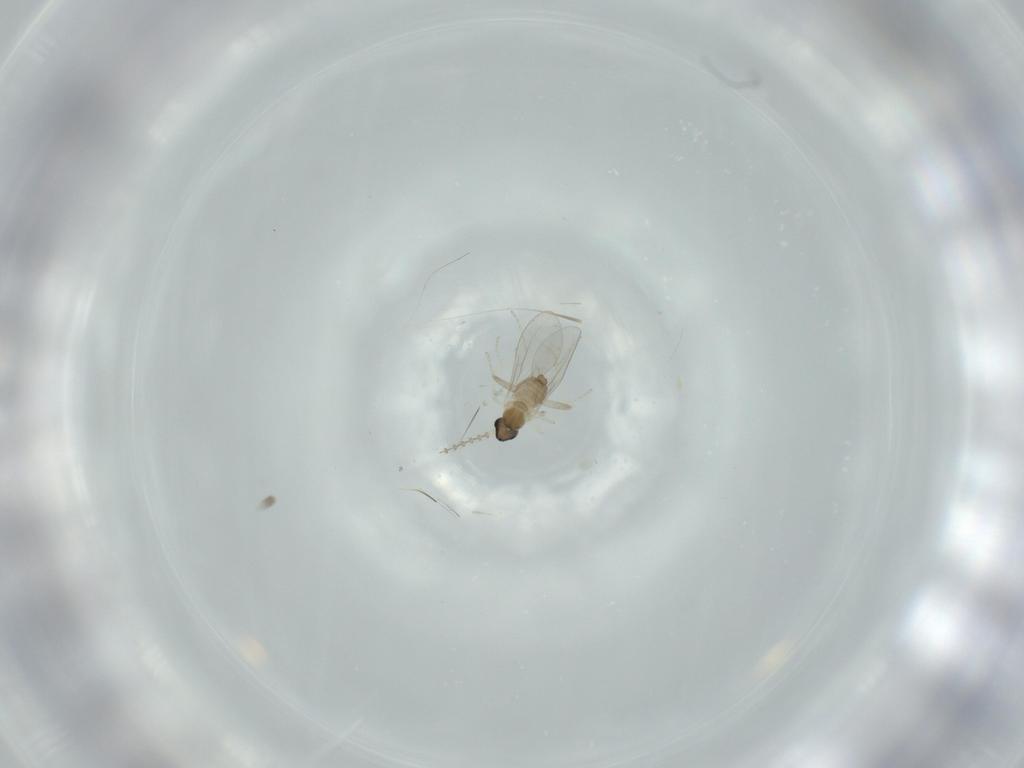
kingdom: Animalia
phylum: Arthropoda
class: Insecta
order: Diptera
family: Cecidomyiidae
